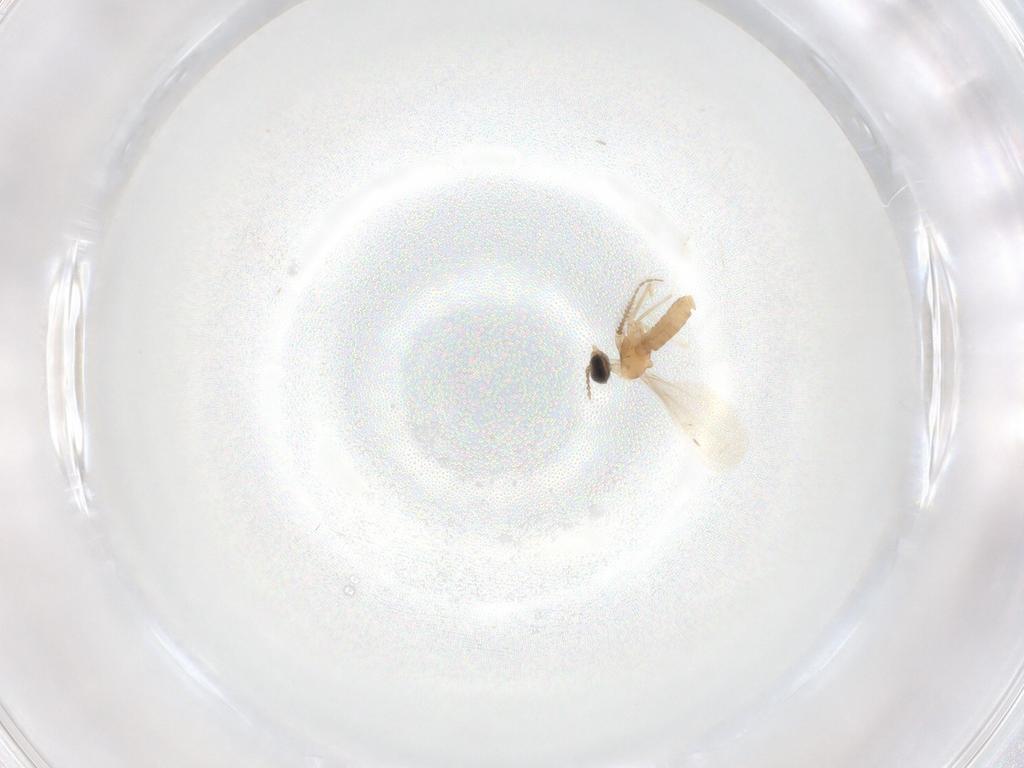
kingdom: Animalia
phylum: Arthropoda
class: Insecta
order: Diptera
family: Cecidomyiidae
